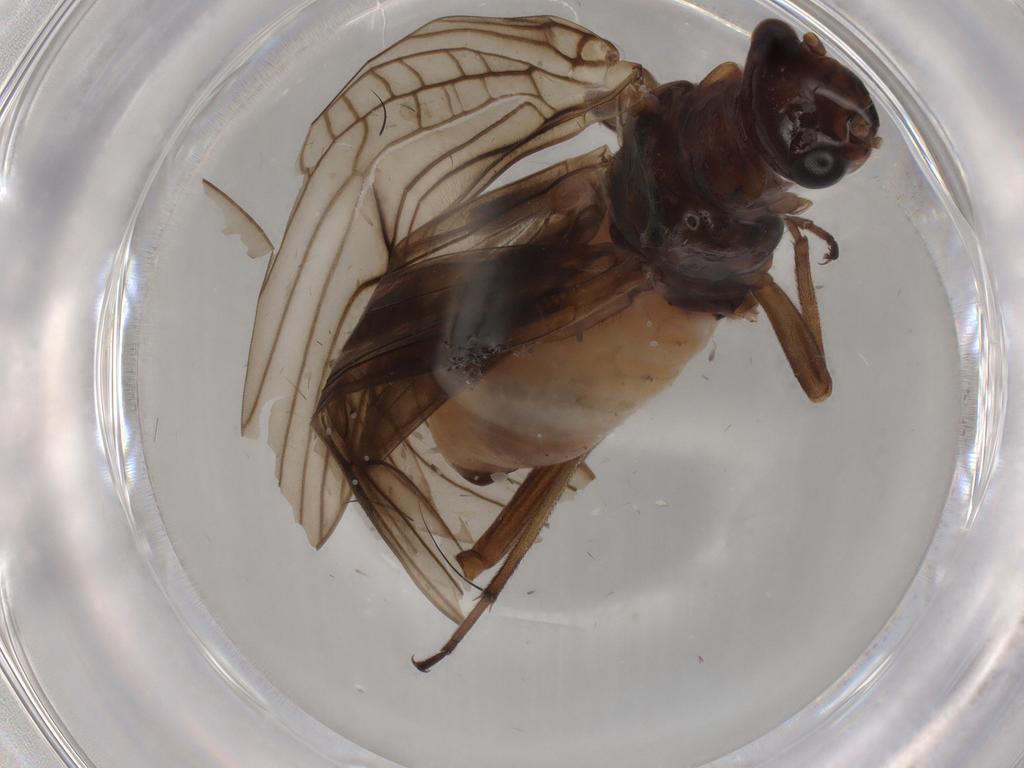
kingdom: Animalia
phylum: Arthropoda
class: Insecta
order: Plecoptera
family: Nemouridae
